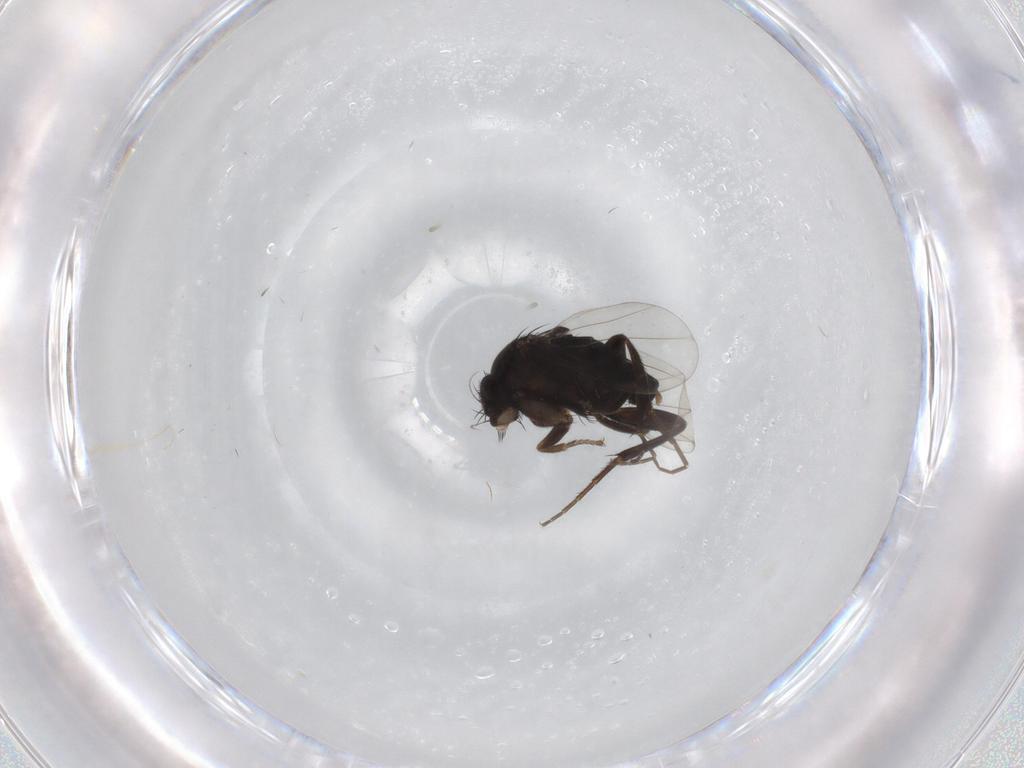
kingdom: Animalia
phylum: Arthropoda
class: Insecta
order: Diptera
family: Phoridae
